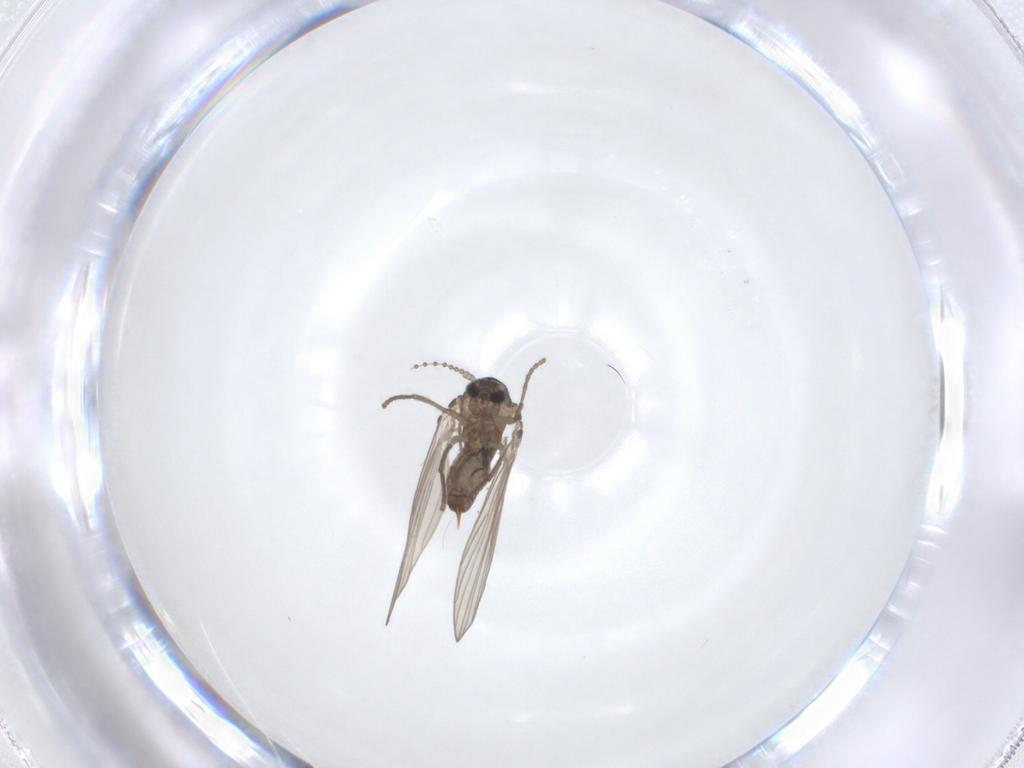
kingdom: Animalia
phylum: Arthropoda
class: Insecta
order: Diptera
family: Psychodidae
